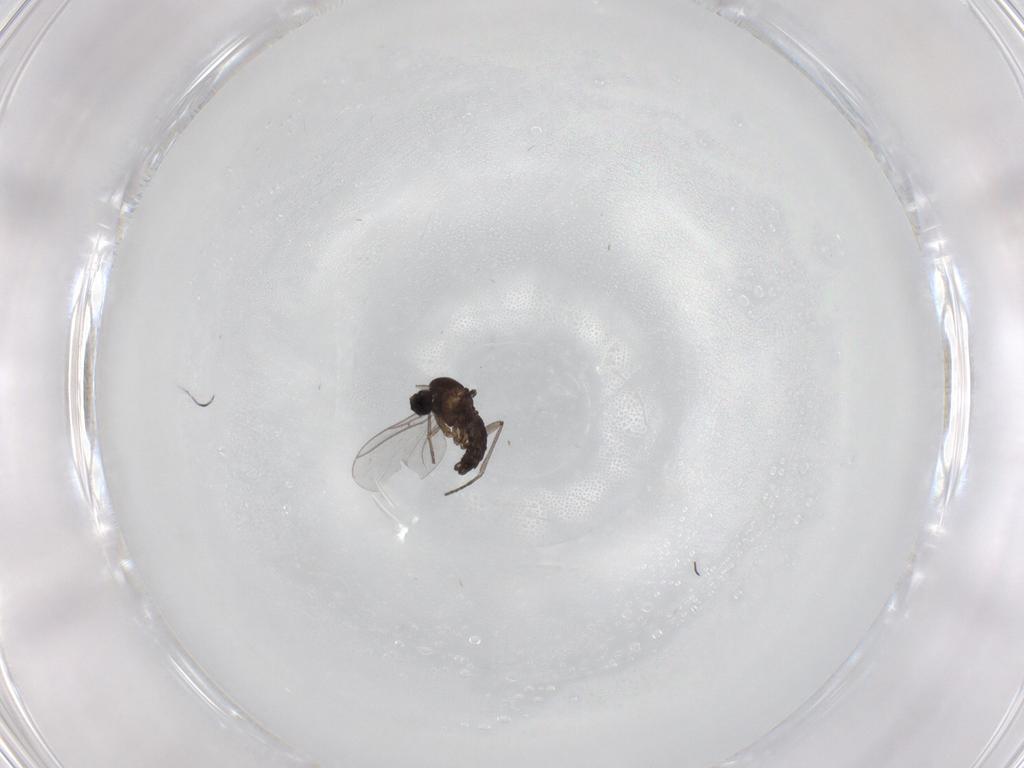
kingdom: Animalia
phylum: Arthropoda
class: Insecta
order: Diptera
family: Sciaridae
